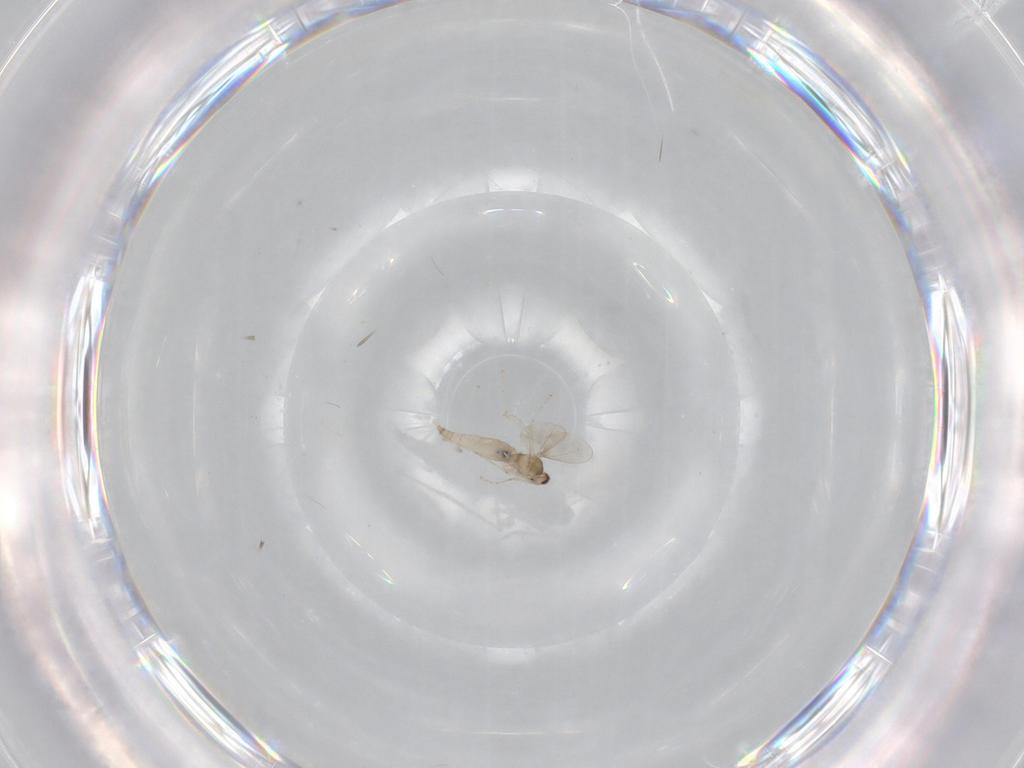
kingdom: Animalia
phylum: Arthropoda
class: Insecta
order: Diptera
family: Cecidomyiidae
